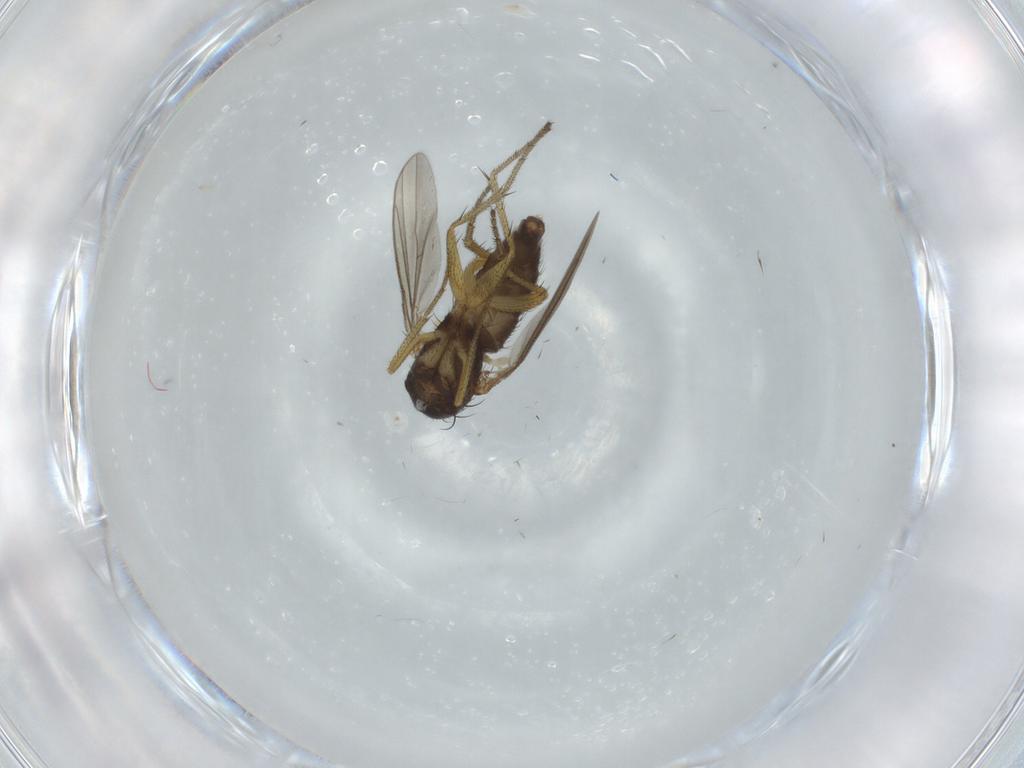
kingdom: Animalia
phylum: Arthropoda
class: Insecta
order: Diptera
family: Dolichopodidae
